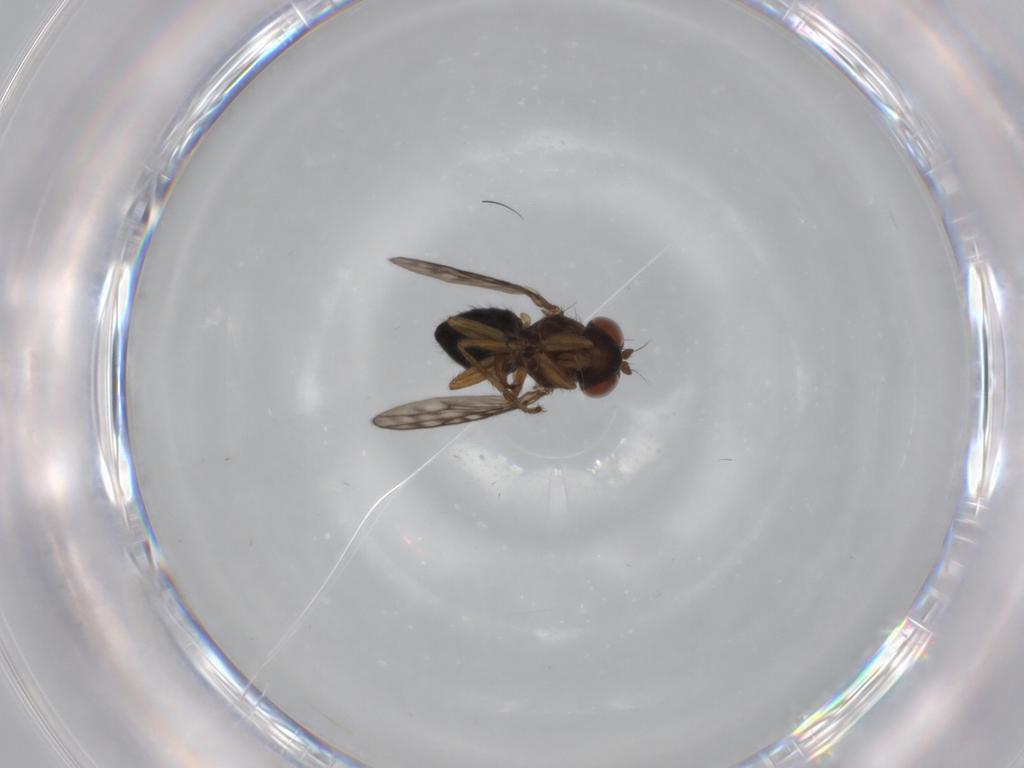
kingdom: Animalia
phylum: Arthropoda
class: Insecta
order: Diptera
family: Ephydridae
